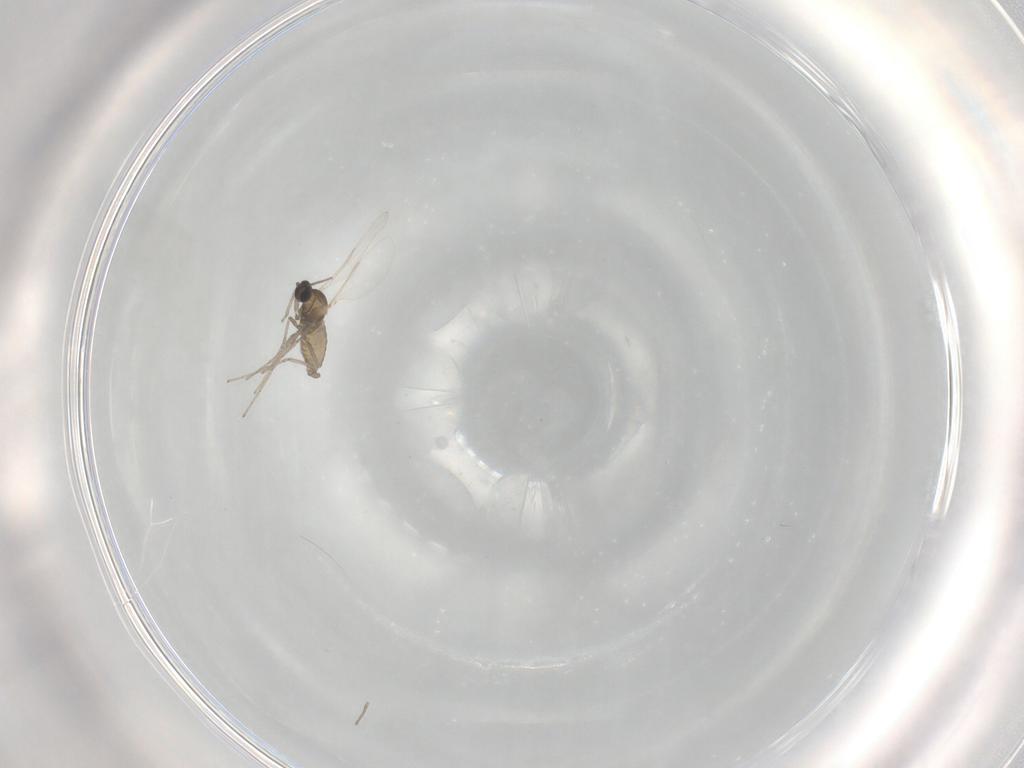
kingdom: Animalia
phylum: Arthropoda
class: Insecta
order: Diptera
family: Cecidomyiidae
